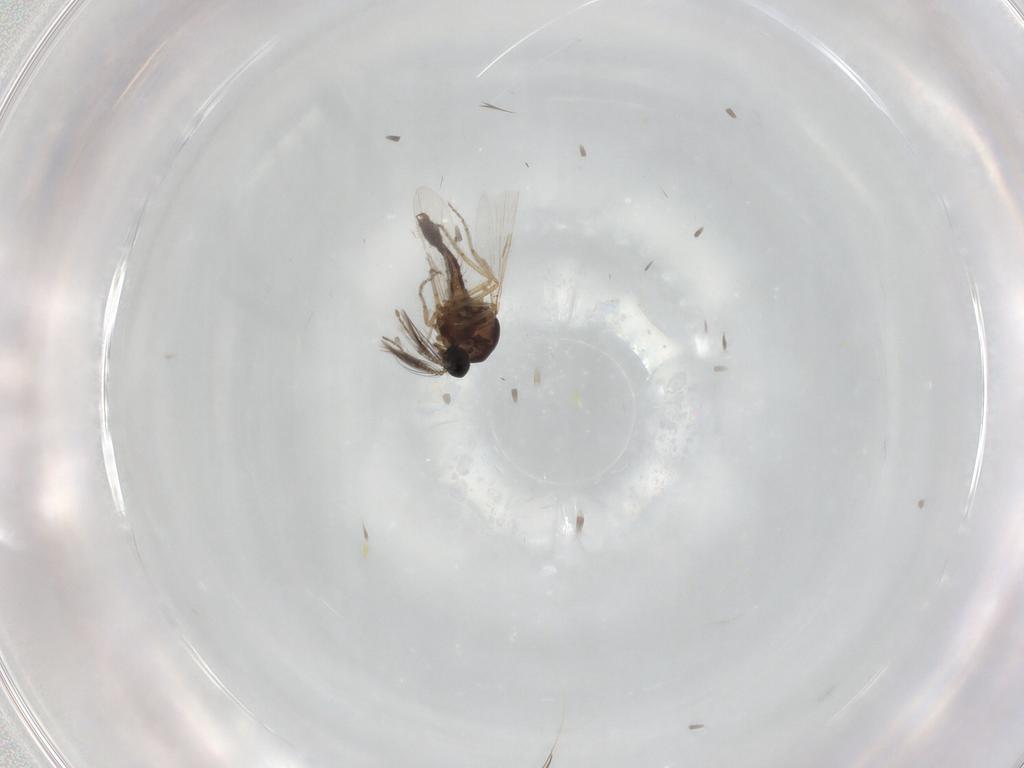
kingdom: Animalia
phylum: Arthropoda
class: Insecta
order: Diptera
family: Ceratopogonidae
